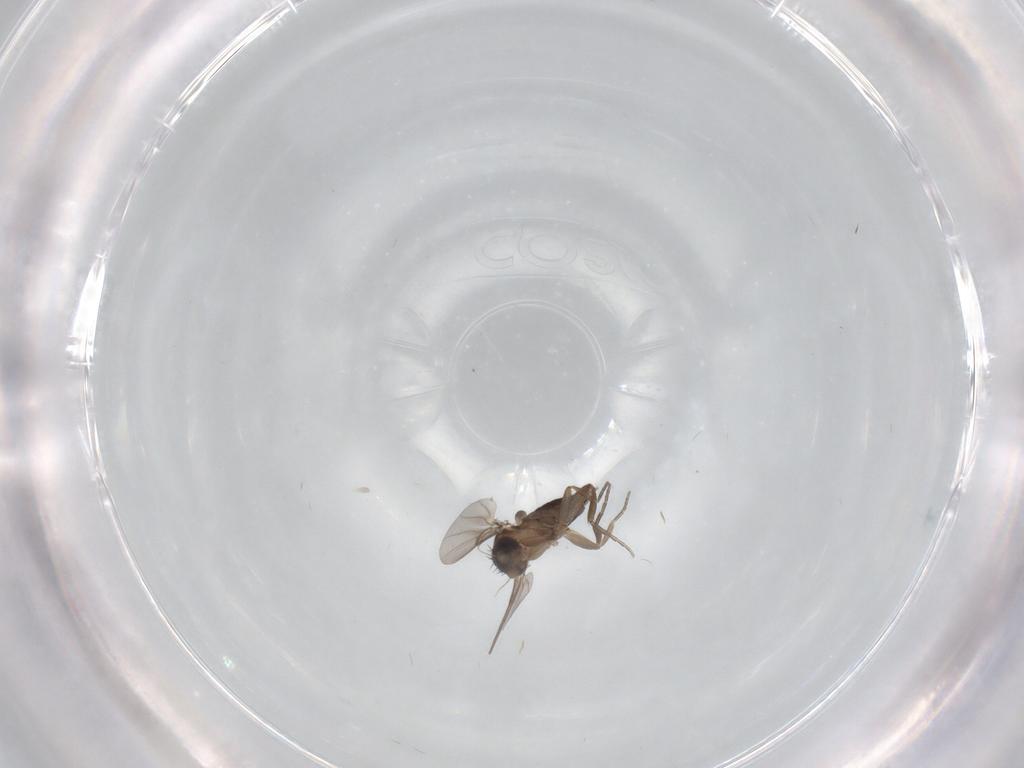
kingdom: Animalia
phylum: Arthropoda
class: Insecta
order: Diptera
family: Phoridae
